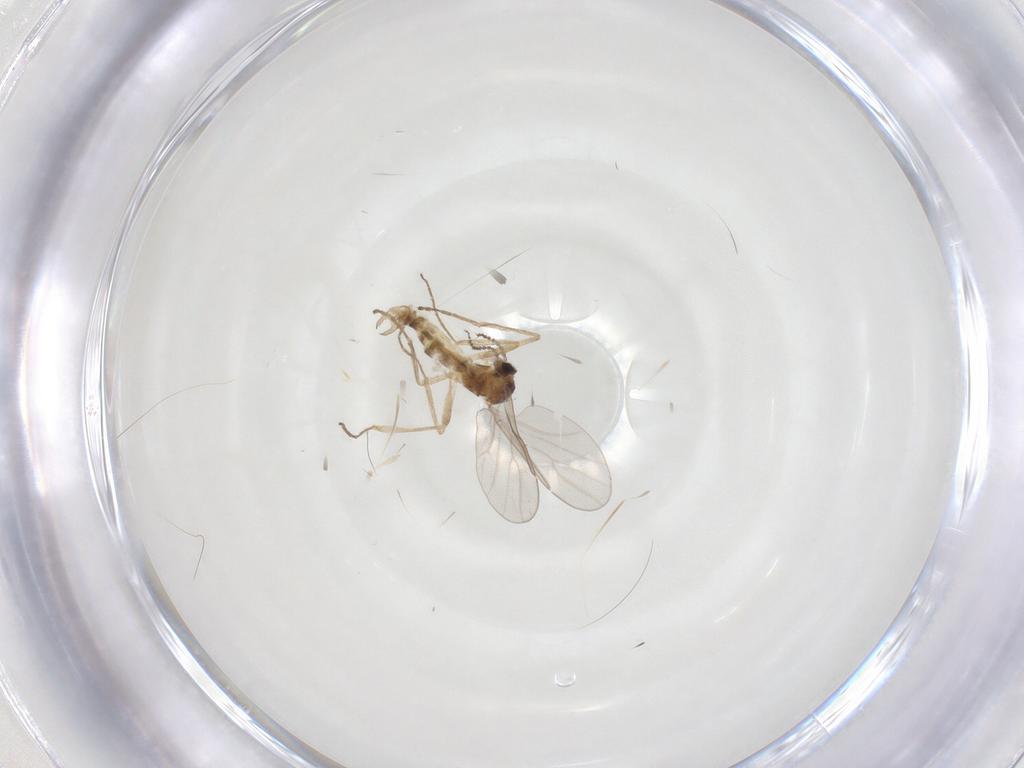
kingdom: Animalia
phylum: Arthropoda
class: Insecta
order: Diptera
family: Cecidomyiidae
